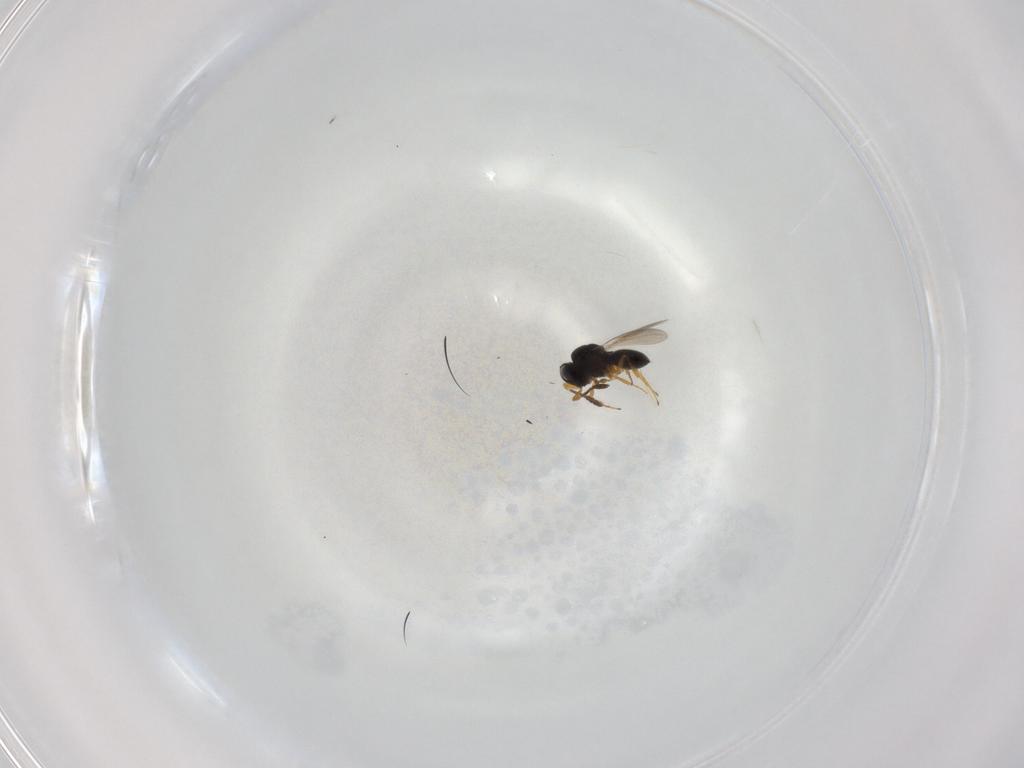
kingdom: Animalia
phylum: Arthropoda
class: Insecta
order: Hymenoptera
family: Scelionidae
